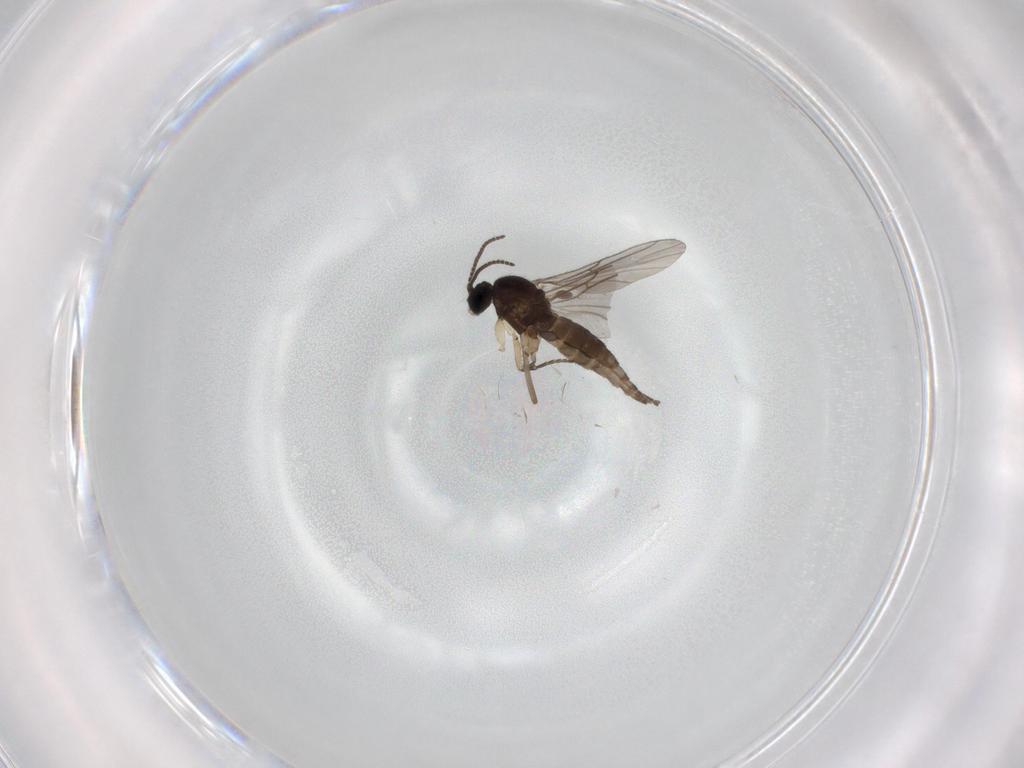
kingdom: Animalia
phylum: Arthropoda
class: Insecta
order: Diptera
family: Sciaridae
